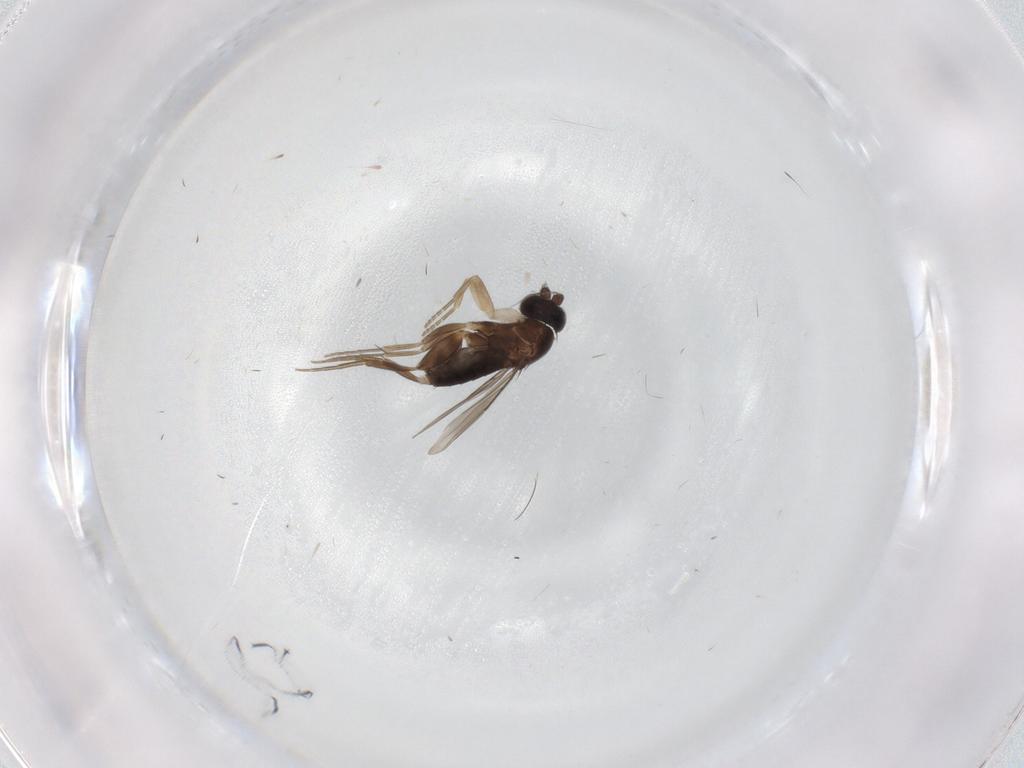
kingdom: Animalia
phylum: Arthropoda
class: Insecta
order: Diptera
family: Phoridae
